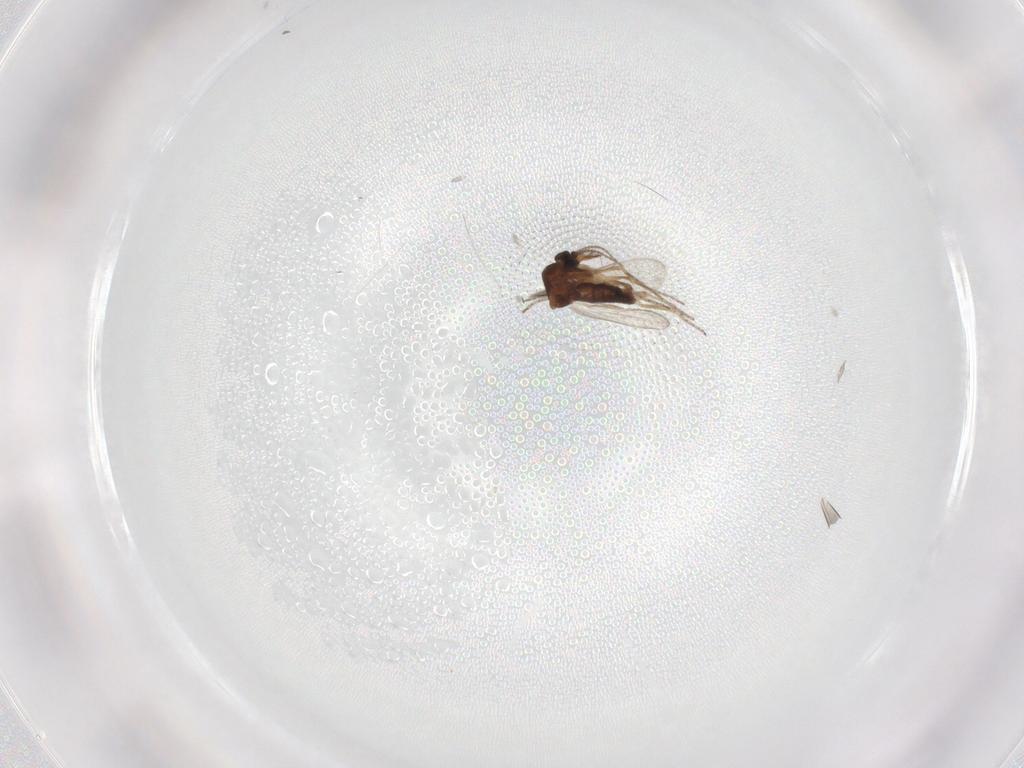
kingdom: Animalia
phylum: Arthropoda
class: Insecta
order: Diptera
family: Ceratopogonidae
